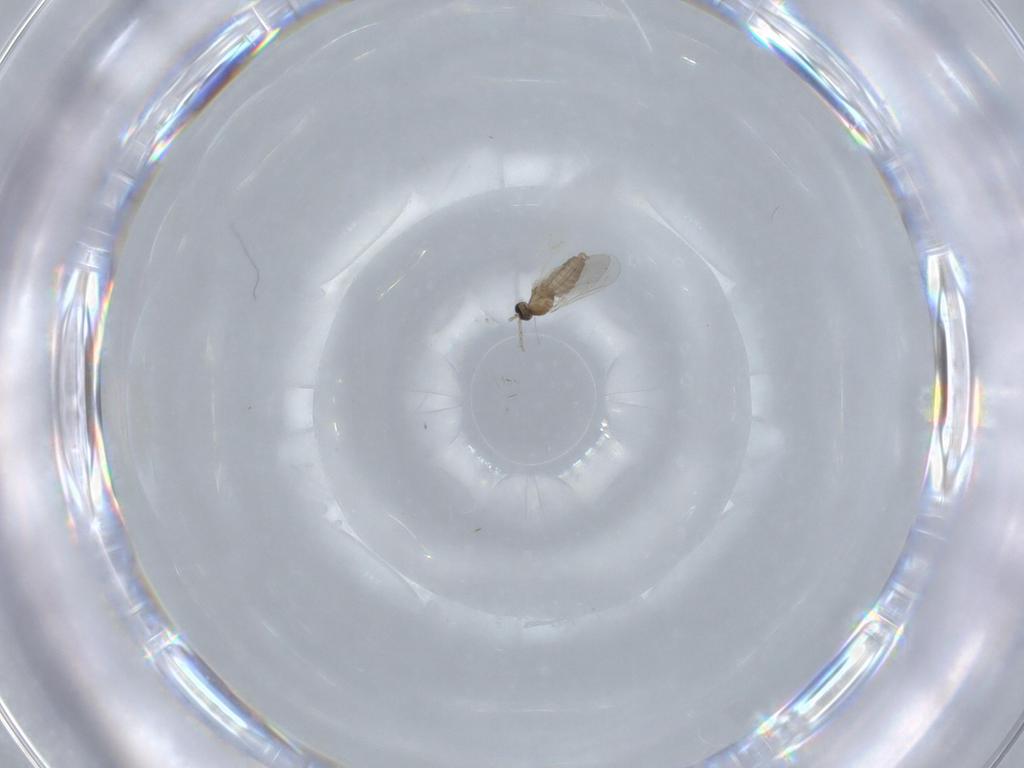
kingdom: Animalia
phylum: Arthropoda
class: Insecta
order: Diptera
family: Cecidomyiidae
